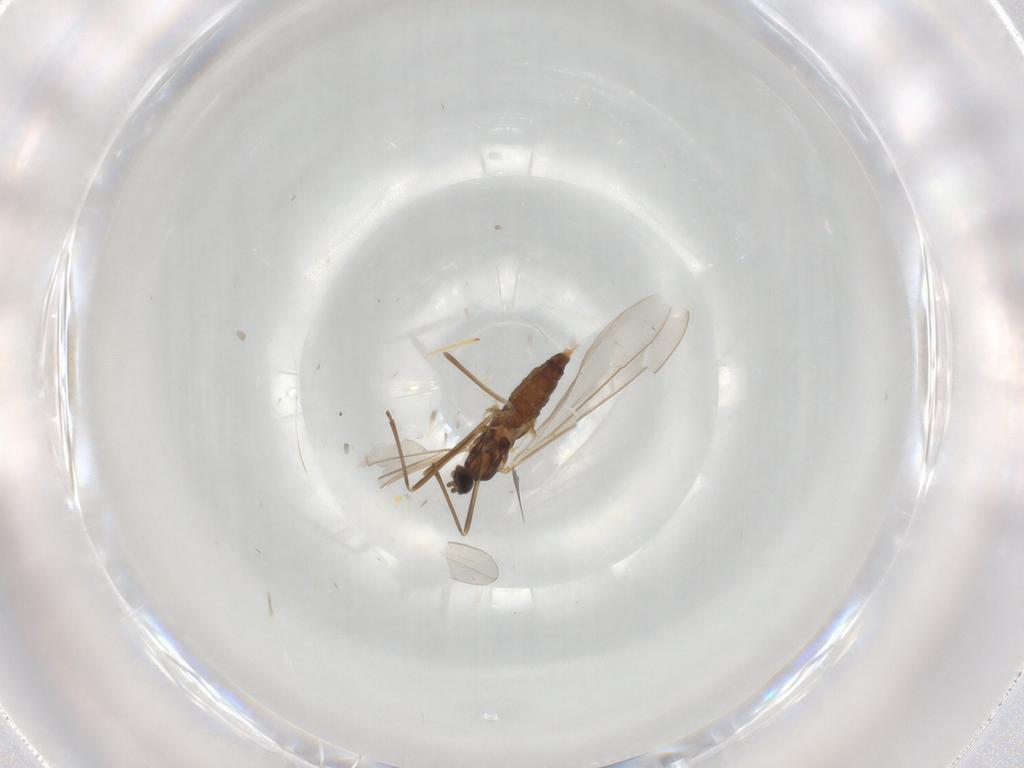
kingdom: Animalia
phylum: Arthropoda
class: Insecta
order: Diptera
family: Cecidomyiidae
